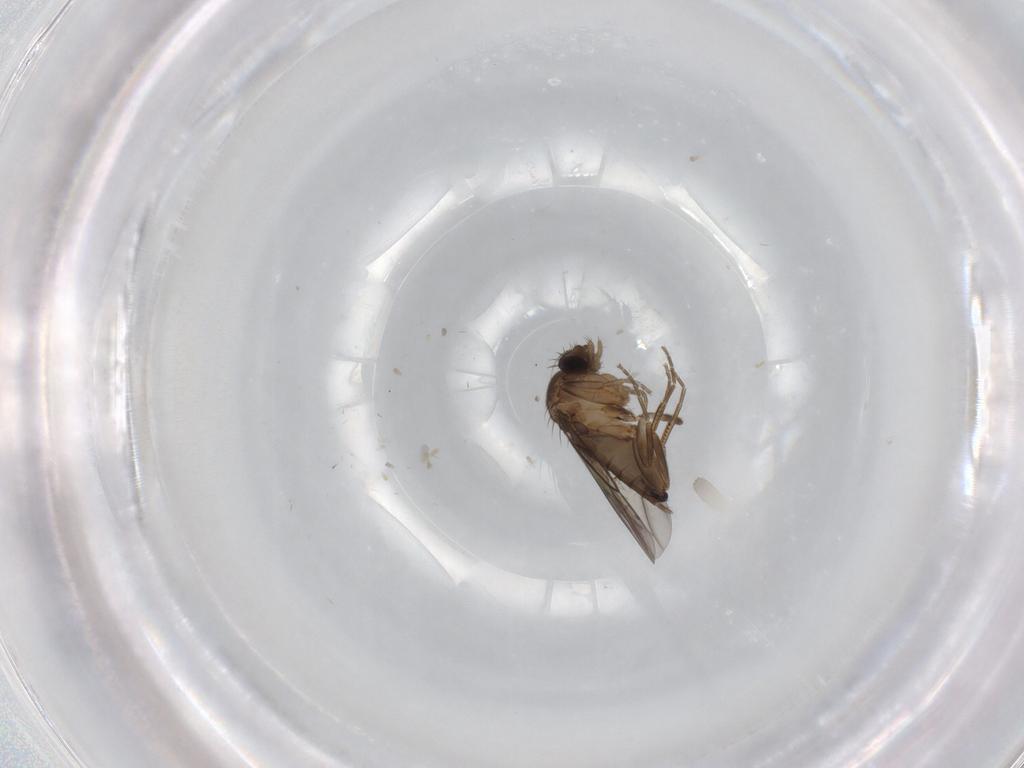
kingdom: Animalia
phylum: Arthropoda
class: Insecta
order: Diptera
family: Phoridae
